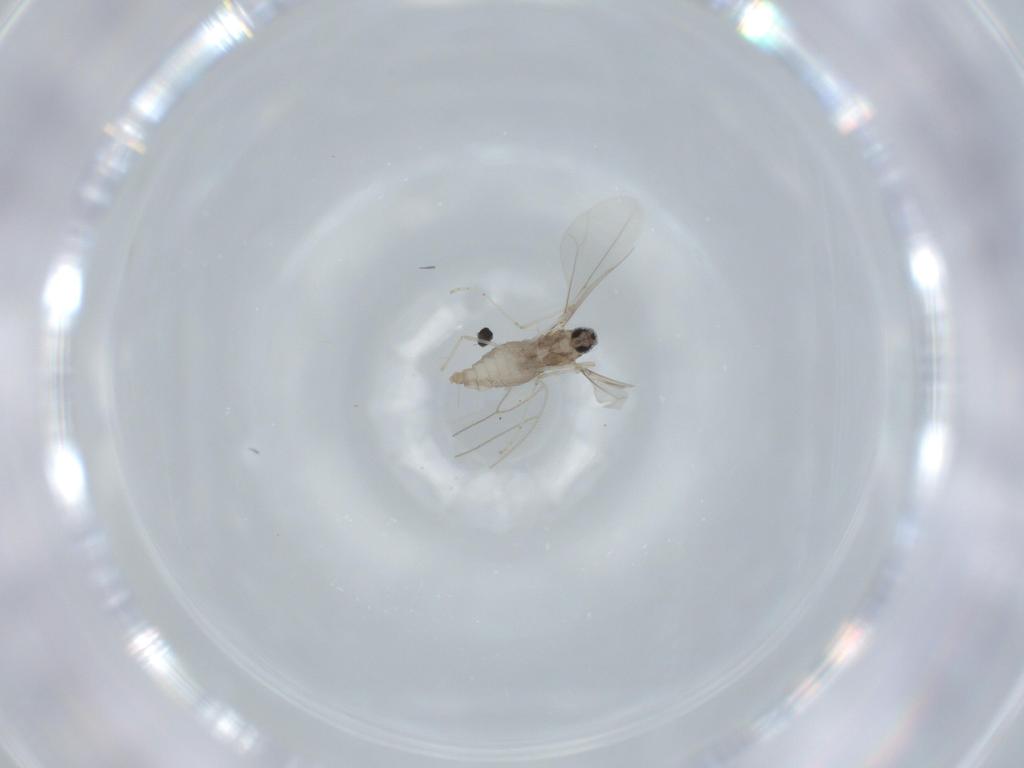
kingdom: Animalia
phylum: Arthropoda
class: Insecta
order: Diptera
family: Cecidomyiidae
